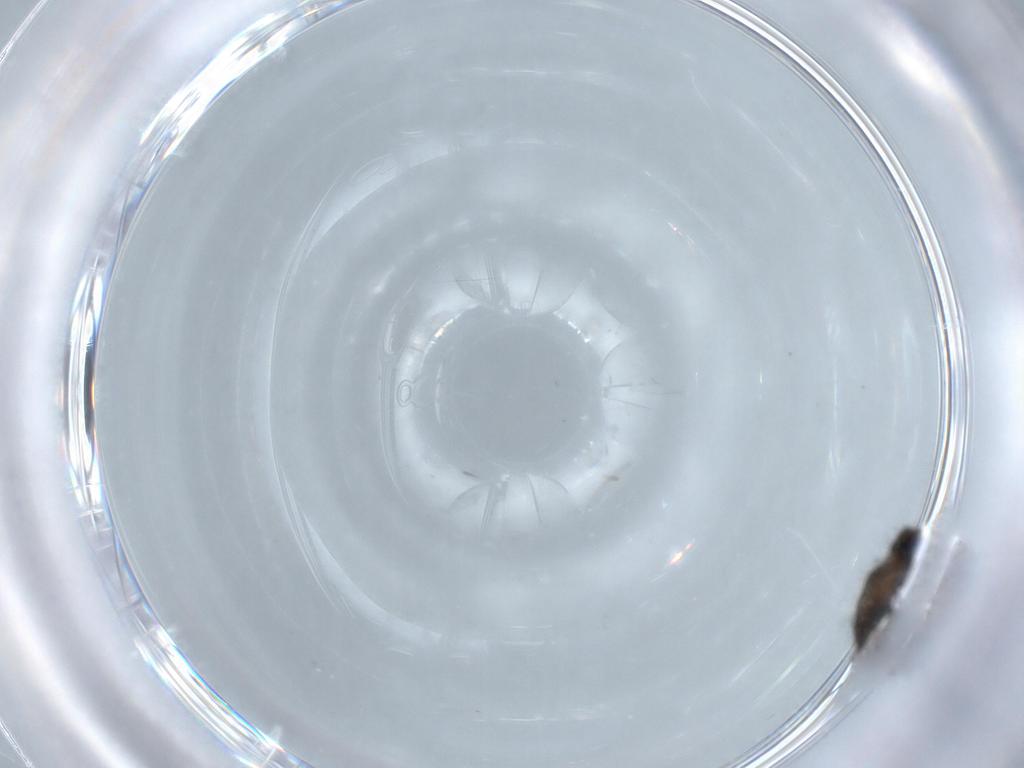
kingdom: Animalia
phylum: Arthropoda
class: Insecta
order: Diptera
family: Phoridae
